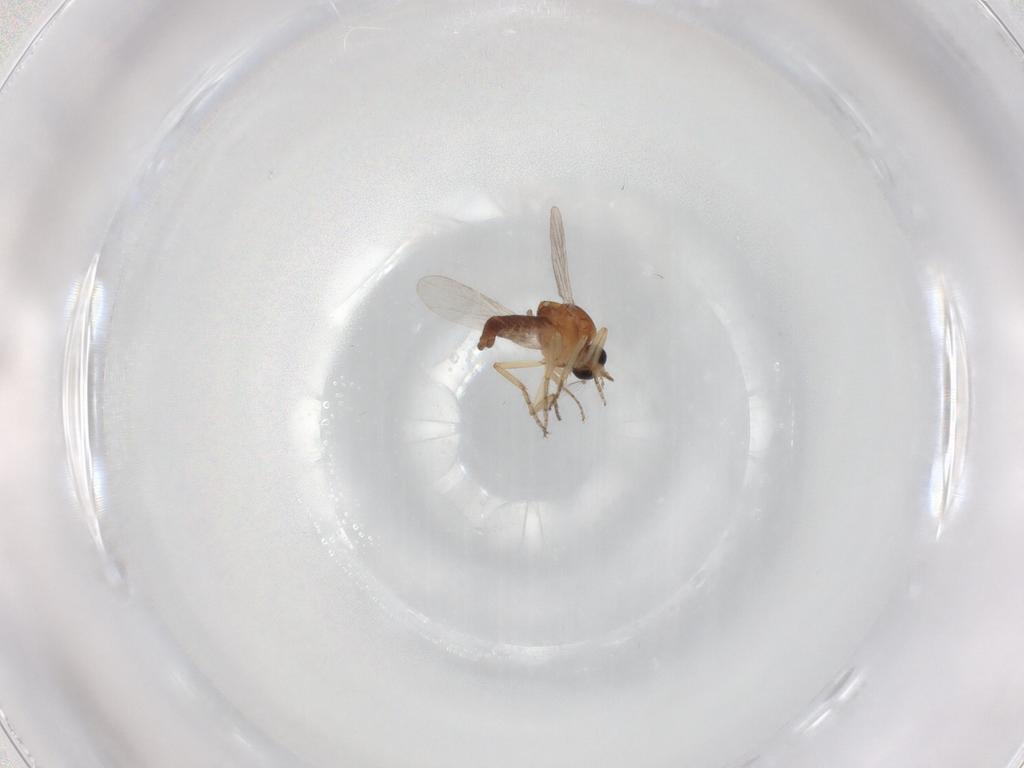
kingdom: Animalia
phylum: Arthropoda
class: Insecta
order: Diptera
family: Ceratopogonidae
